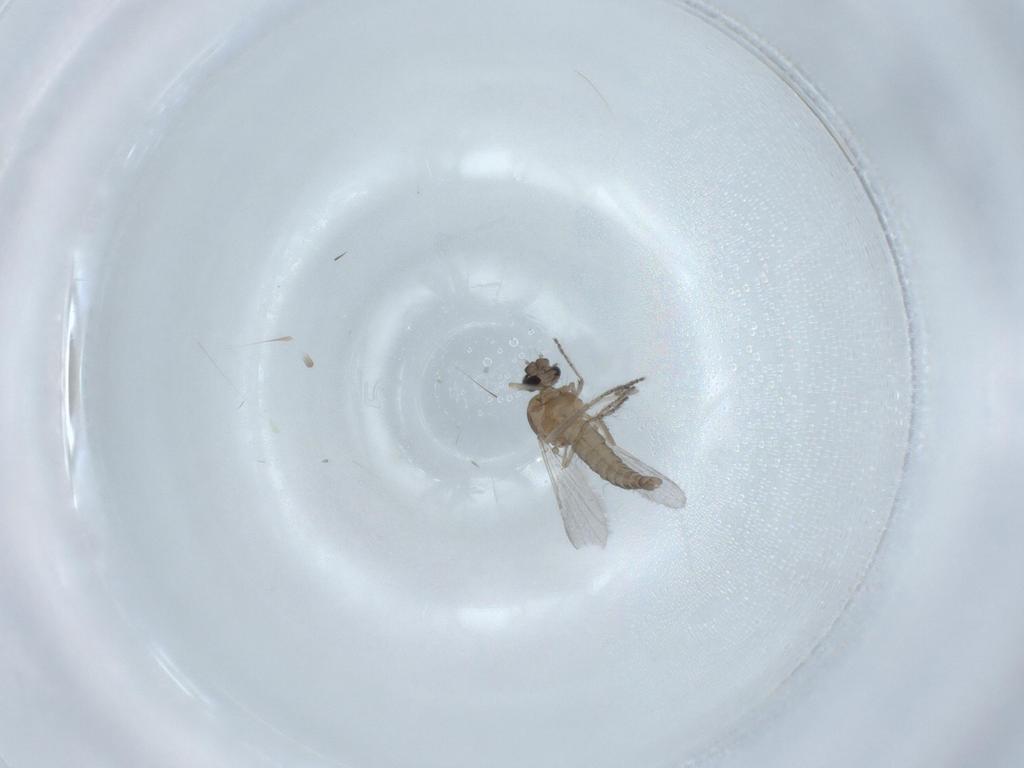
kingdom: Animalia
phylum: Arthropoda
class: Insecta
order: Diptera
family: Ceratopogonidae
